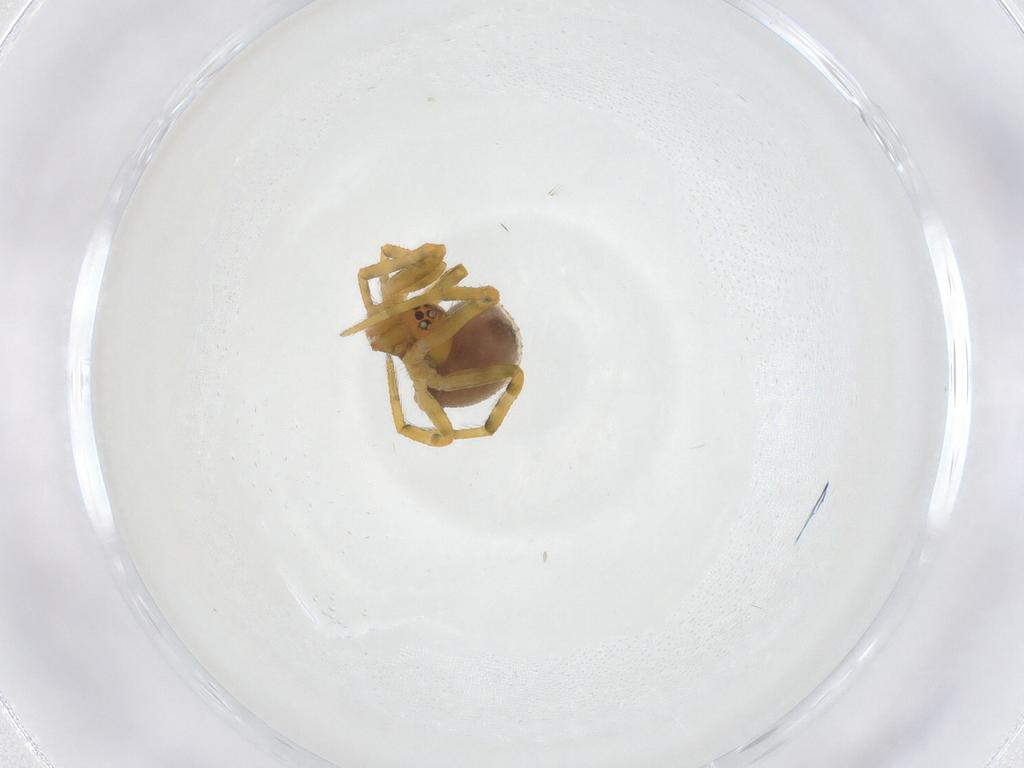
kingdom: Animalia
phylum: Arthropoda
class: Arachnida
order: Araneae
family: Theridiidae
